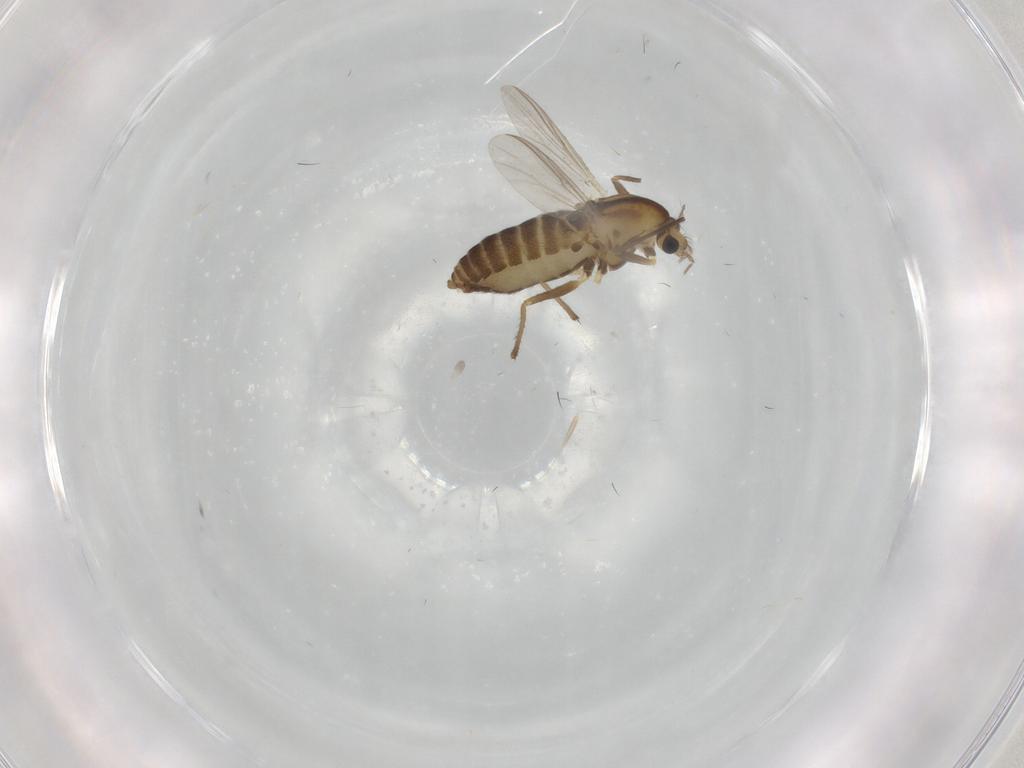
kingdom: Animalia
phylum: Arthropoda
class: Insecta
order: Diptera
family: Chironomidae
